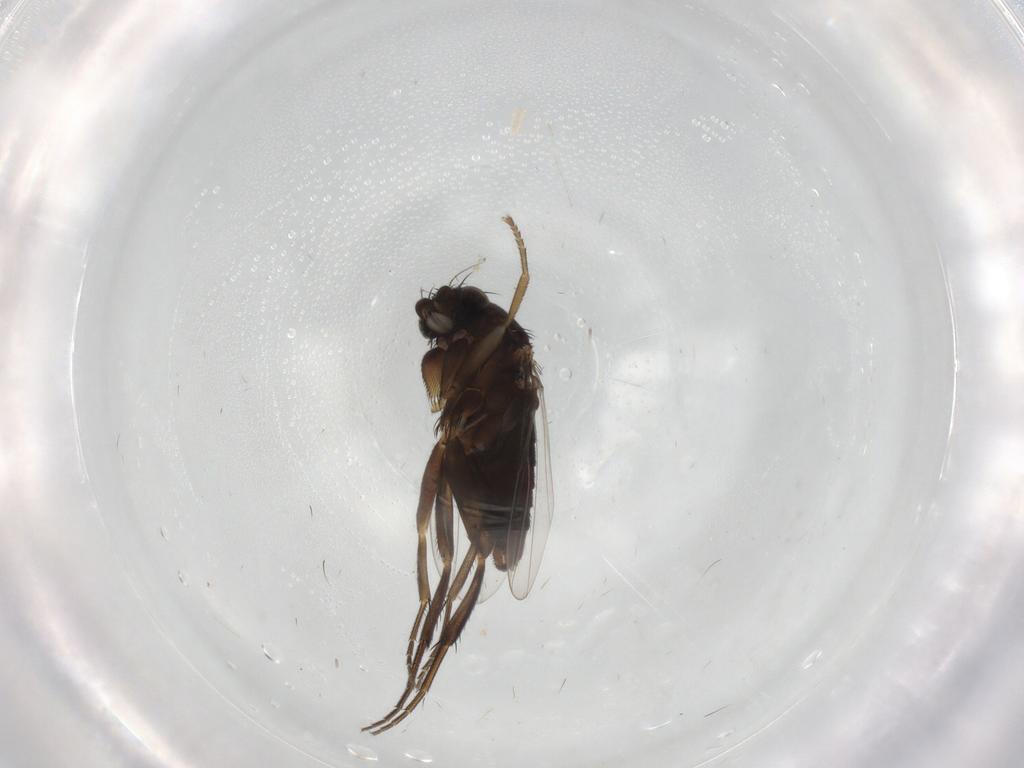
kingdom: Animalia
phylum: Arthropoda
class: Insecta
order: Diptera
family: Phoridae
